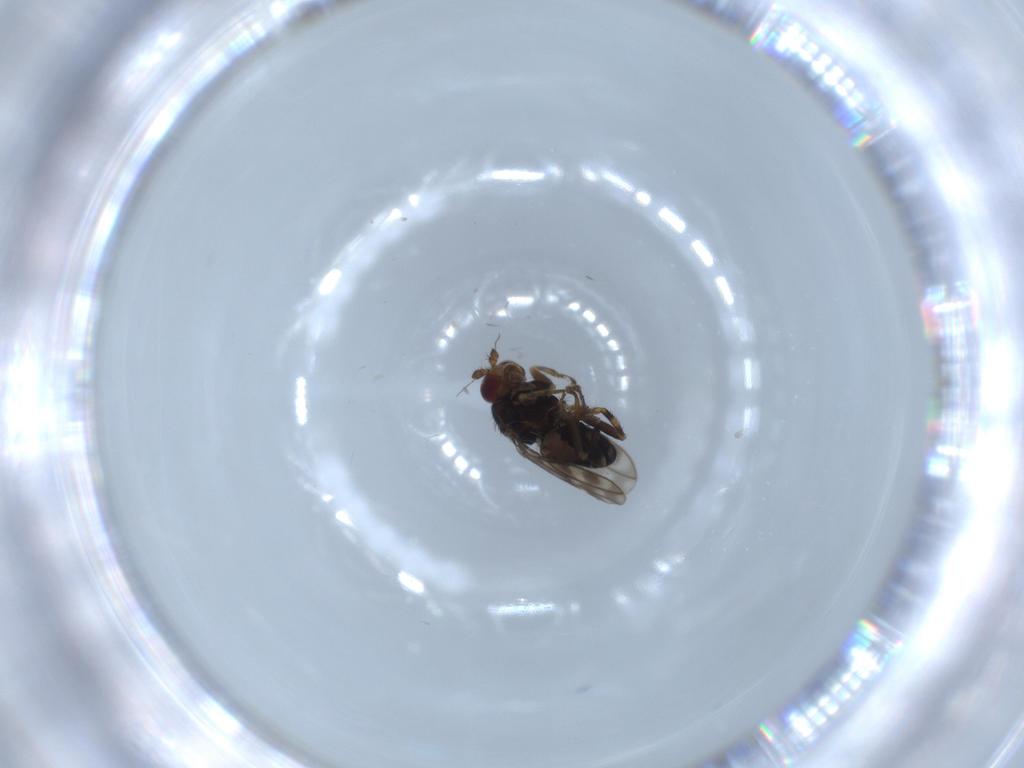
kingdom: Animalia
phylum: Arthropoda
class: Insecta
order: Diptera
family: Sphaeroceridae
